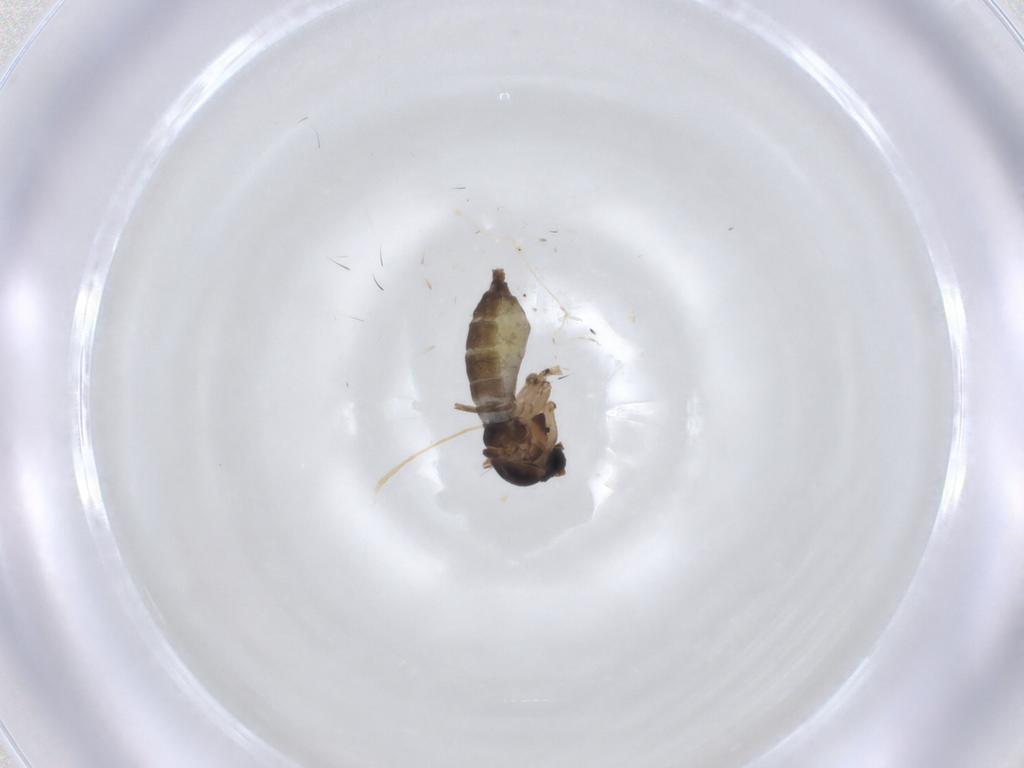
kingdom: Animalia
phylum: Arthropoda
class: Insecta
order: Diptera
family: Sciaridae
